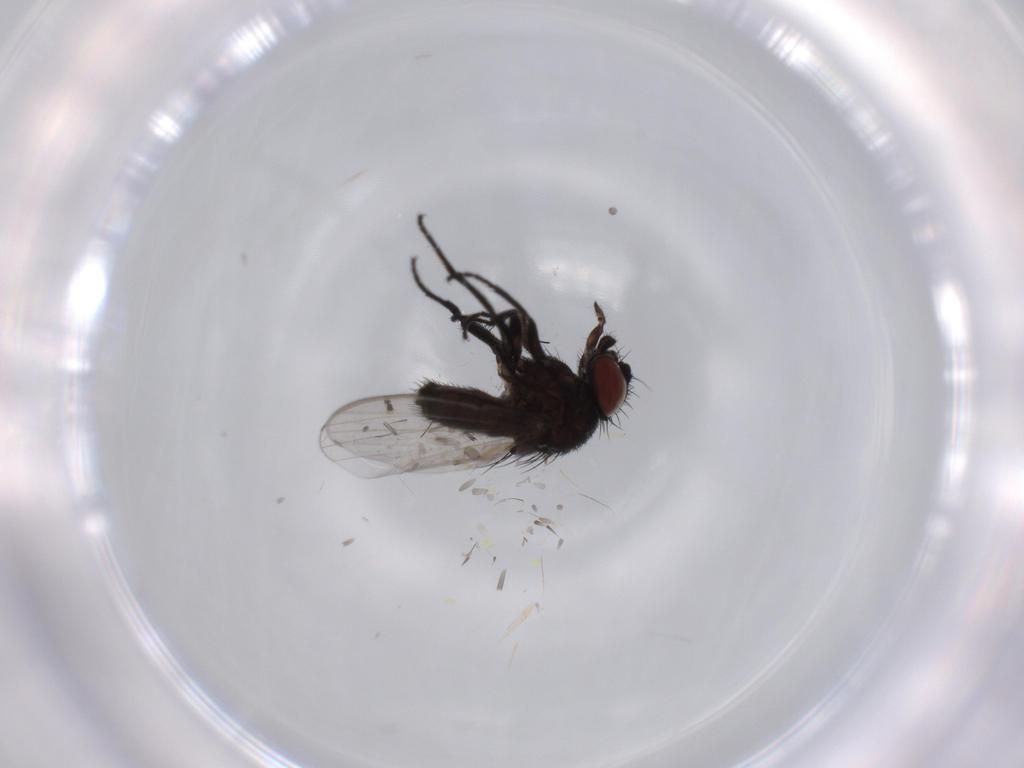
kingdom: Animalia
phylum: Arthropoda
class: Insecta
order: Diptera
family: Milichiidae
